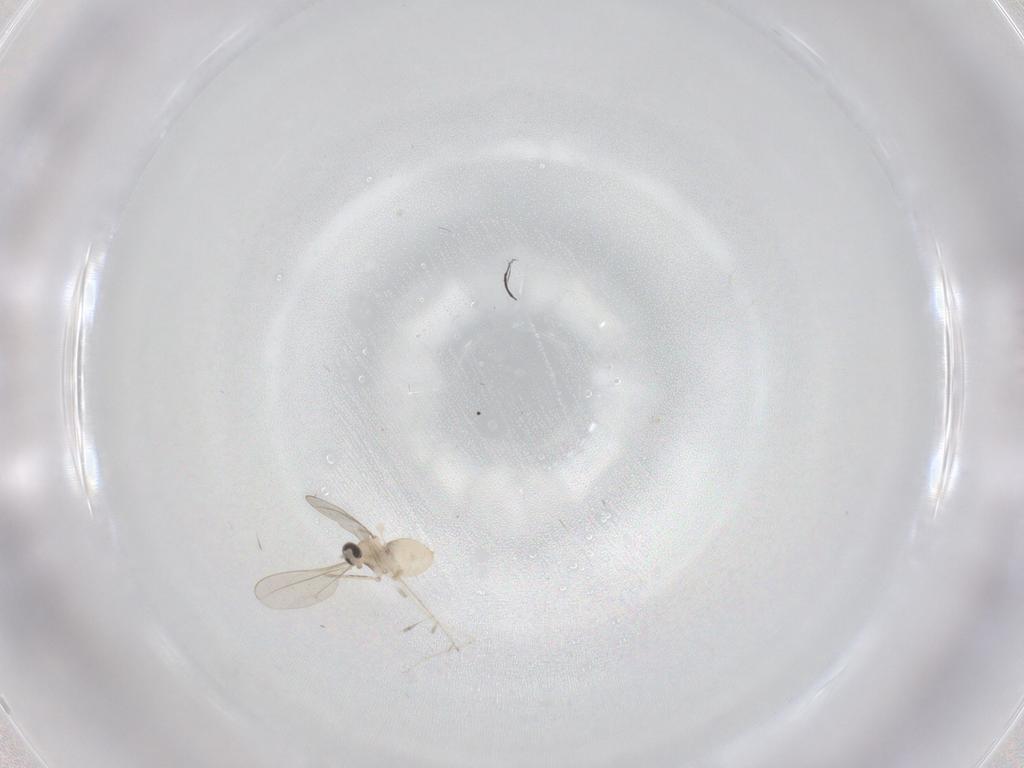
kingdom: Animalia
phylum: Arthropoda
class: Insecta
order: Diptera
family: Cecidomyiidae
